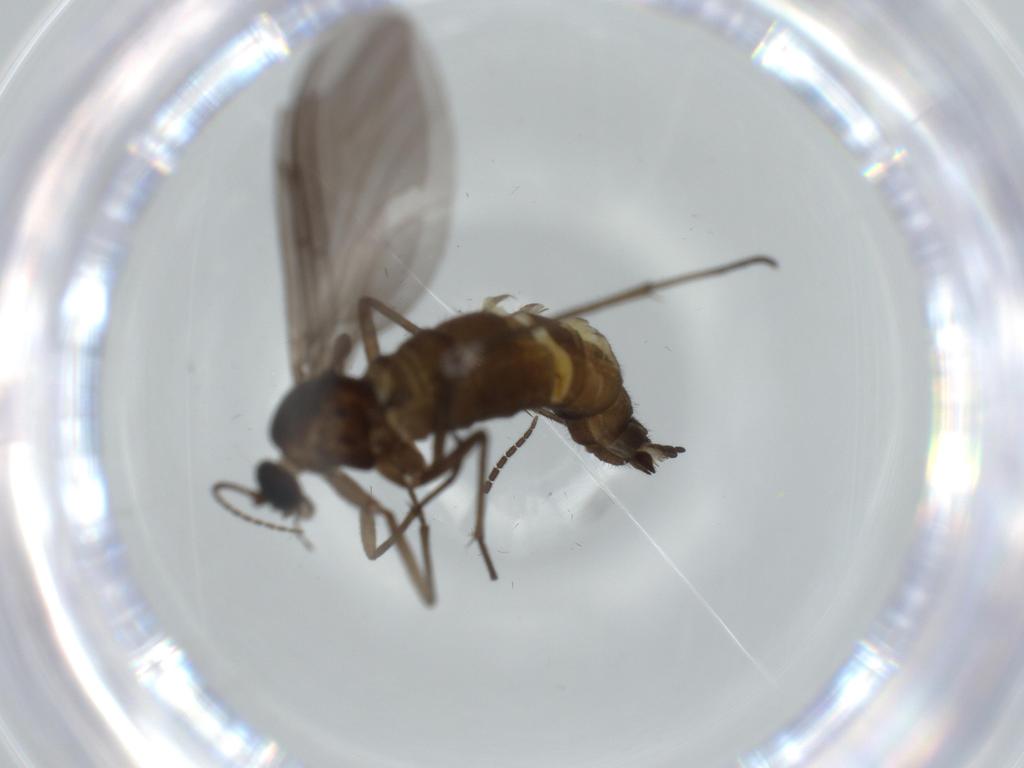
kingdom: Animalia
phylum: Arthropoda
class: Insecta
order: Diptera
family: Sciaridae
